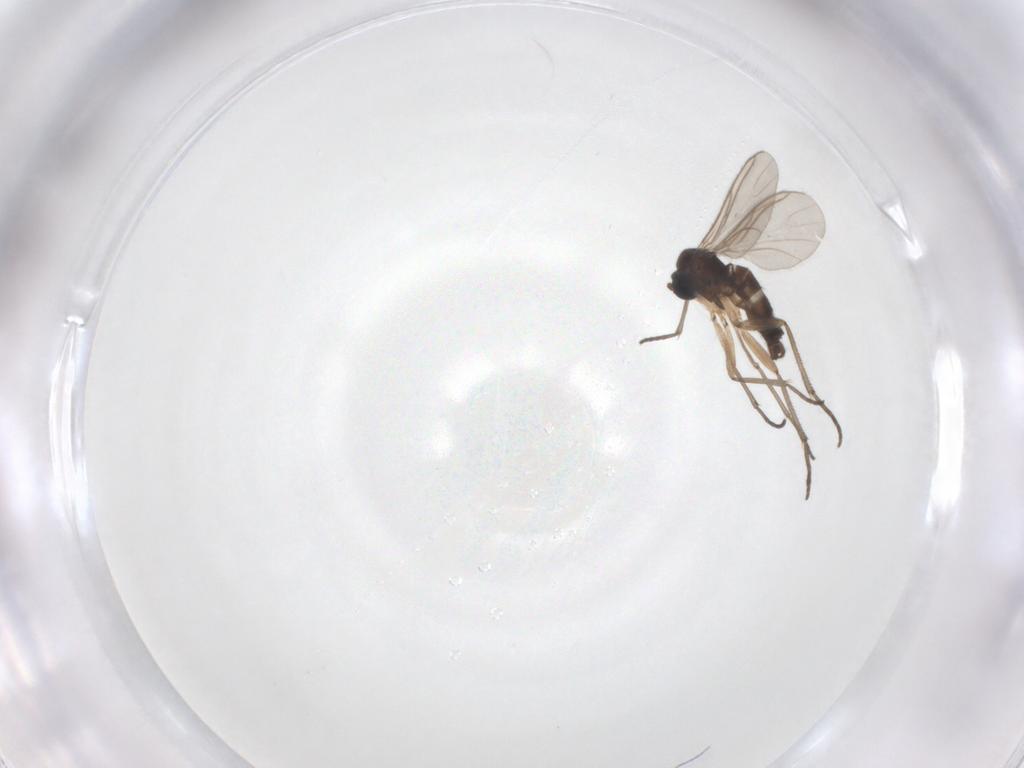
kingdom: Animalia
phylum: Arthropoda
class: Insecta
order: Diptera
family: Sciaridae
